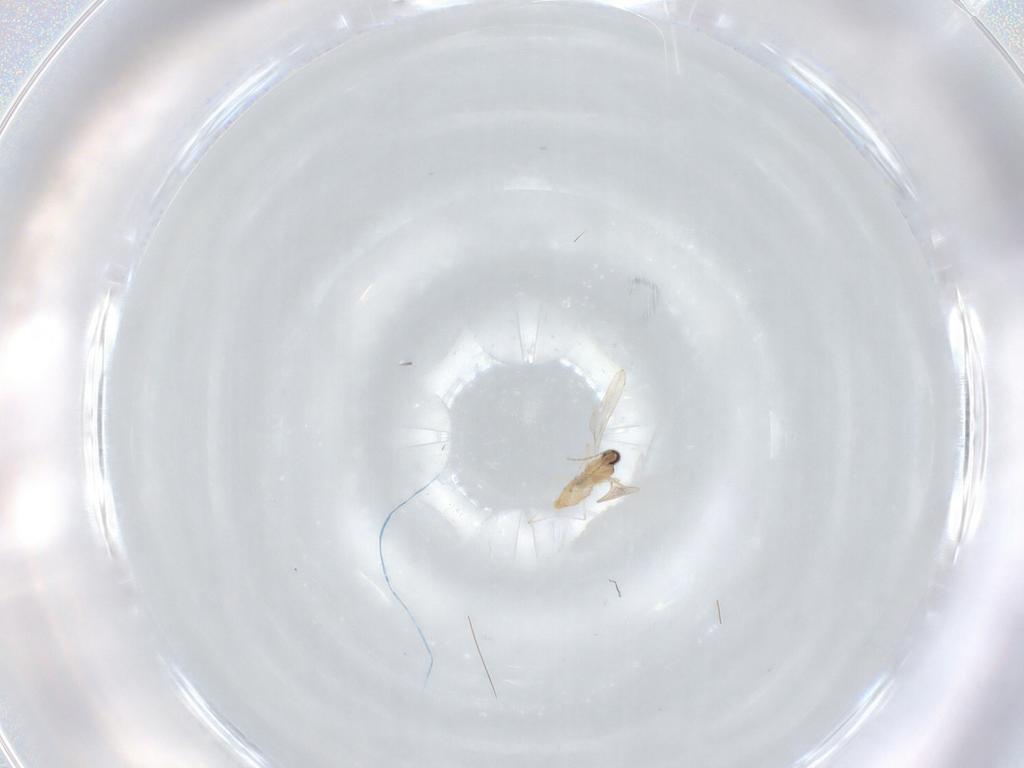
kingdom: Animalia
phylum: Arthropoda
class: Insecta
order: Diptera
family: Cecidomyiidae
